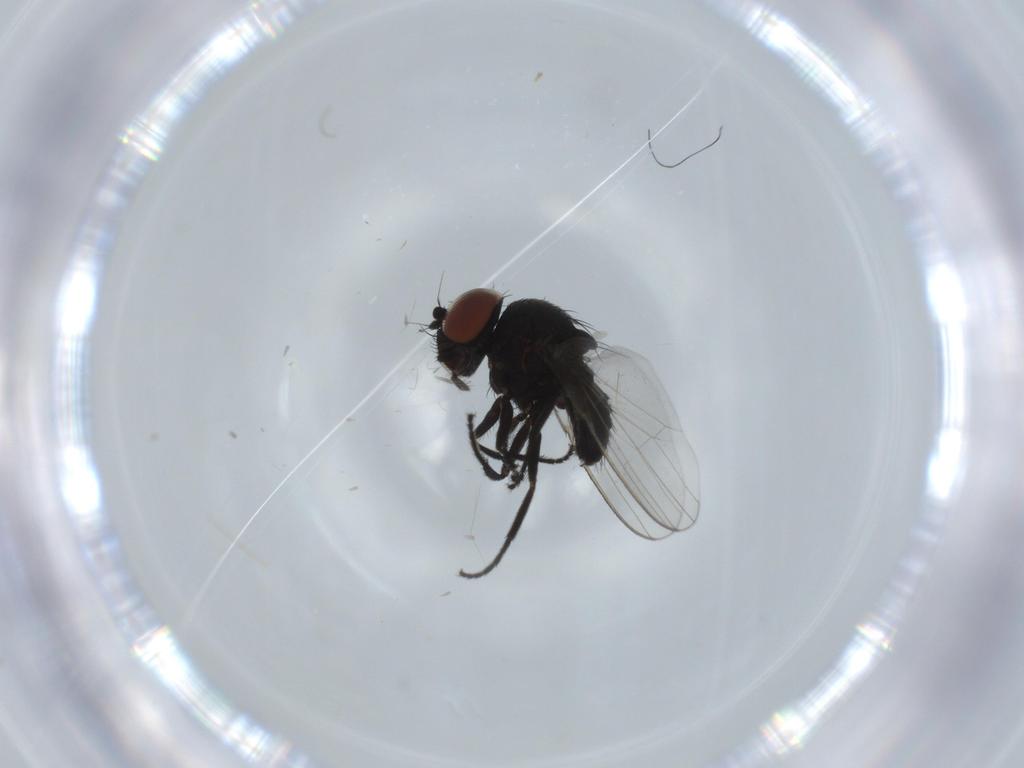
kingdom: Animalia
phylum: Arthropoda
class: Insecta
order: Diptera
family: Milichiidae
